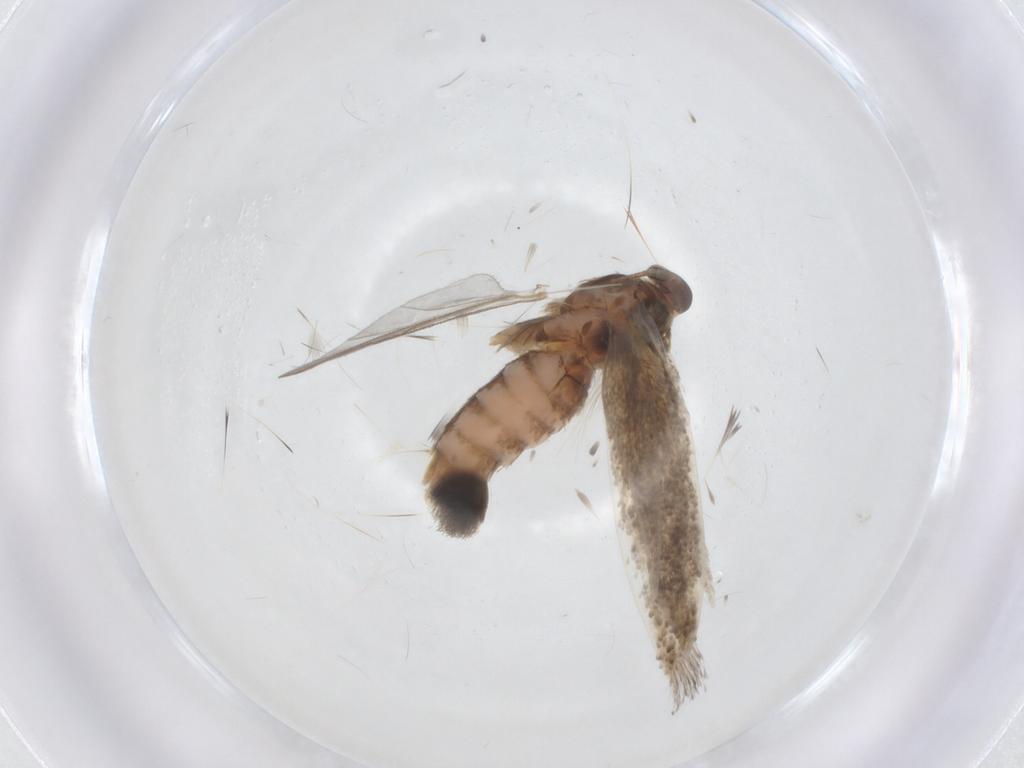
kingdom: Animalia
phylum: Arthropoda
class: Insecta
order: Lepidoptera
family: Elachistidae
